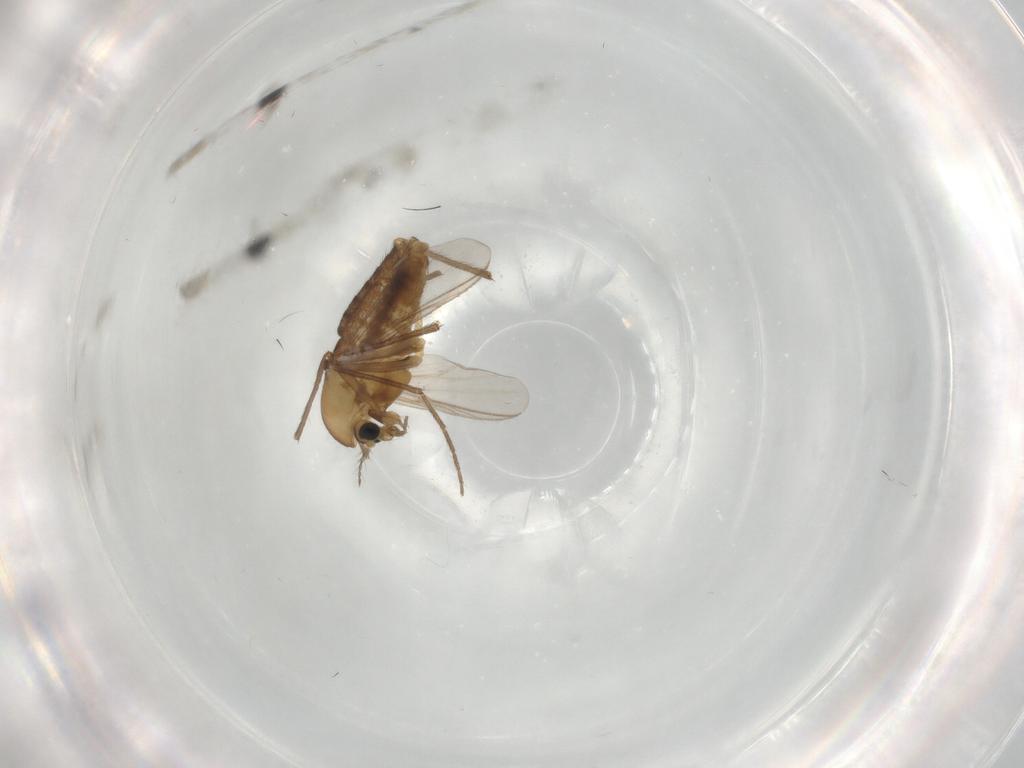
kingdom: Animalia
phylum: Arthropoda
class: Insecta
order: Diptera
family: Chironomidae
